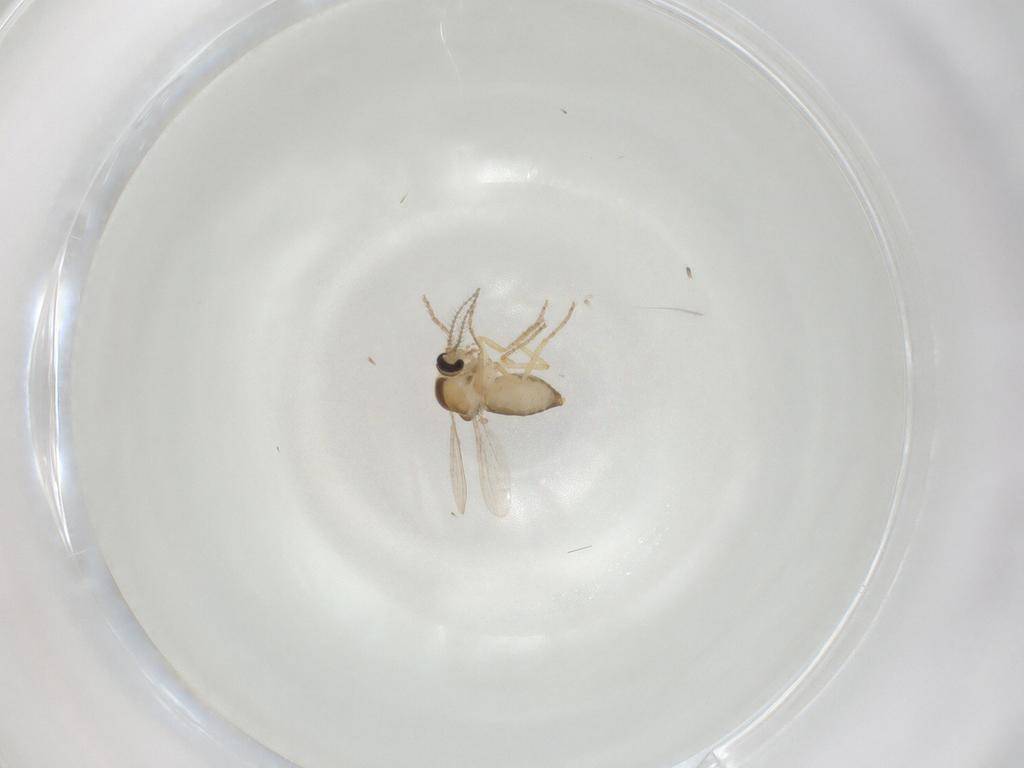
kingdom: Animalia
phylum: Arthropoda
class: Insecta
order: Diptera
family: Ceratopogonidae
